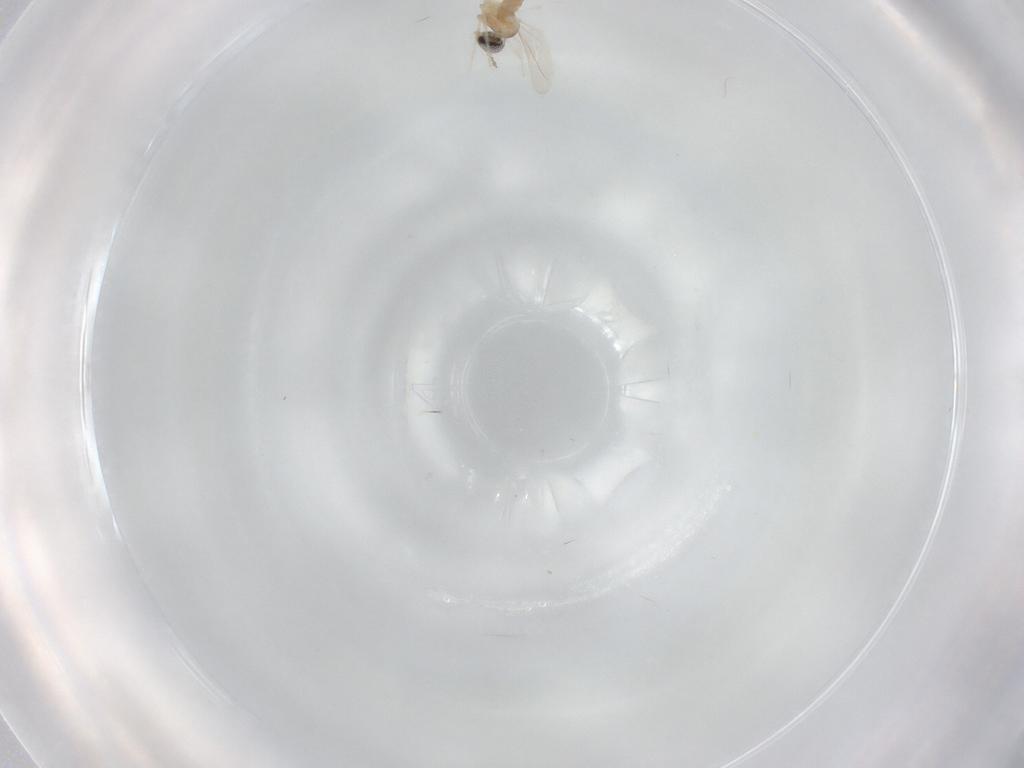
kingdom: Animalia
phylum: Arthropoda
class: Insecta
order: Diptera
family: Cecidomyiidae
